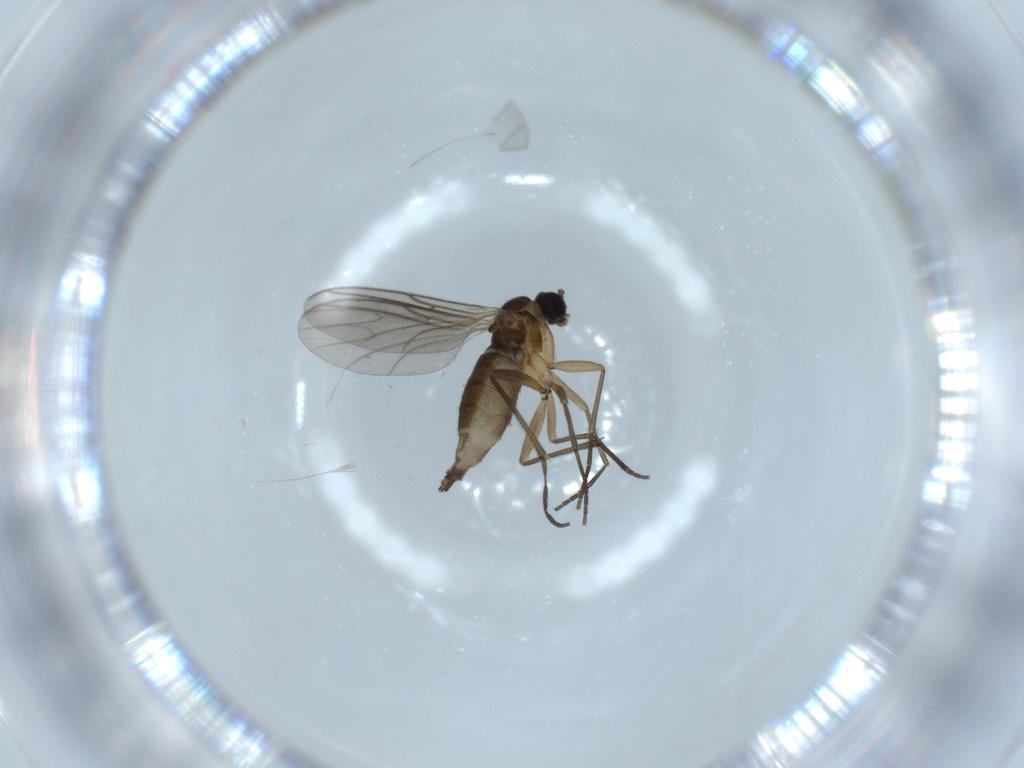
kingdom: Animalia
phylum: Arthropoda
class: Insecta
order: Diptera
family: Sciaridae
